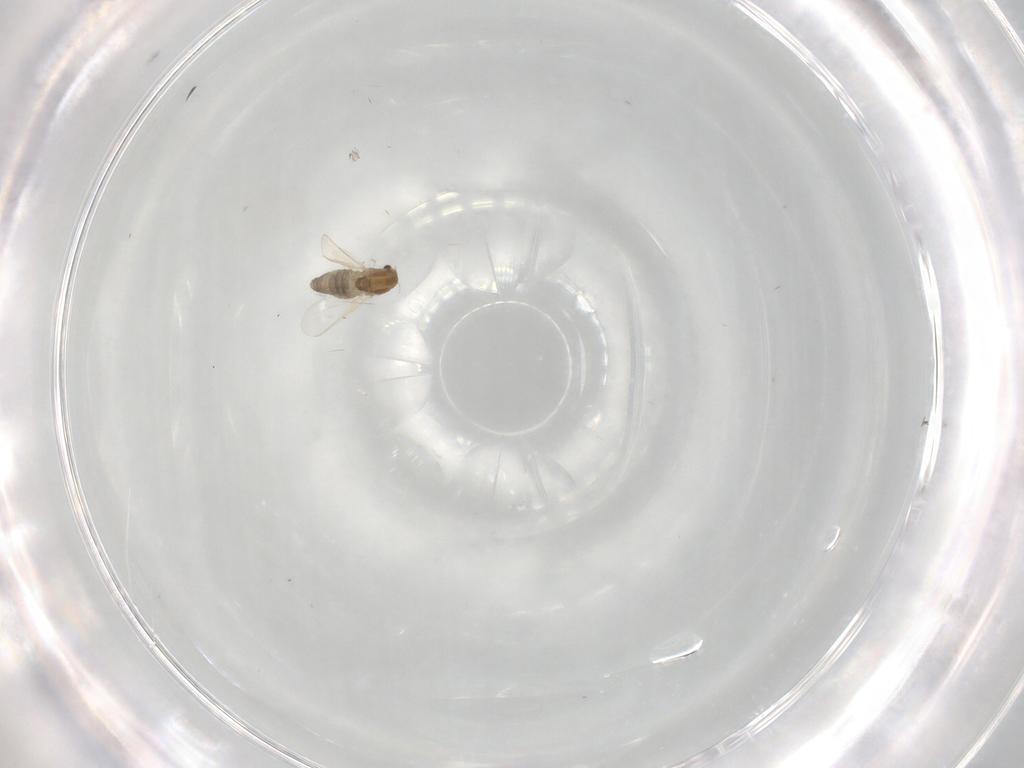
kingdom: Animalia
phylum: Arthropoda
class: Insecta
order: Diptera
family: Chironomidae
